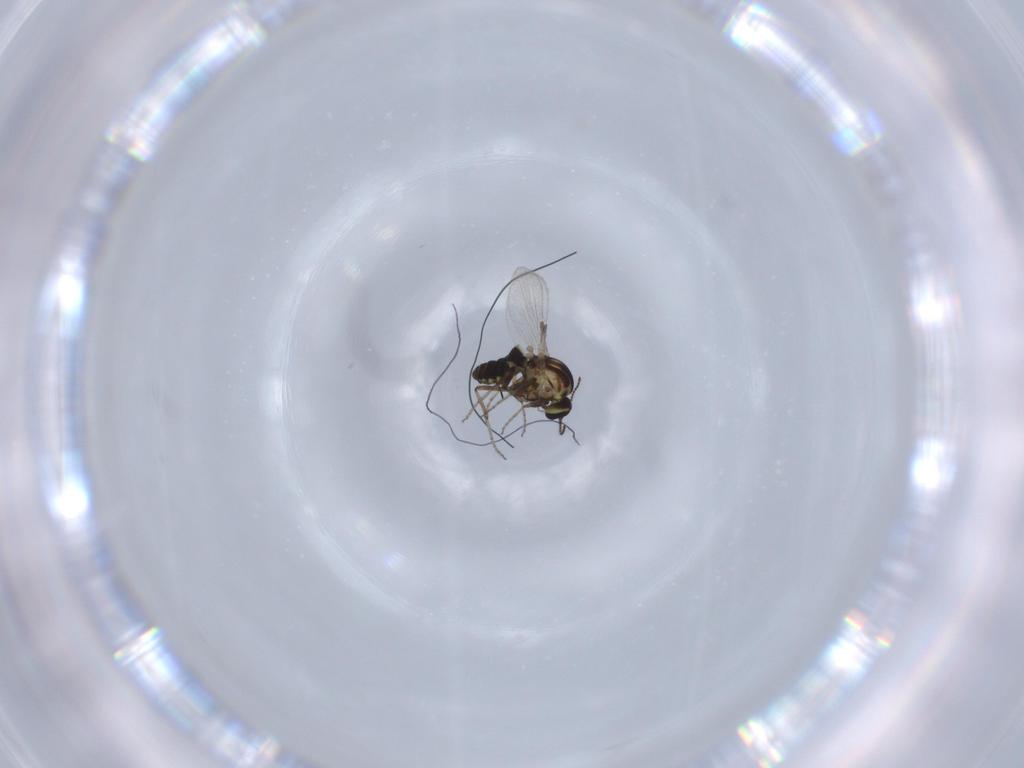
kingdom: Animalia
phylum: Arthropoda
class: Insecta
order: Diptera
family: Ceratopogonidae
